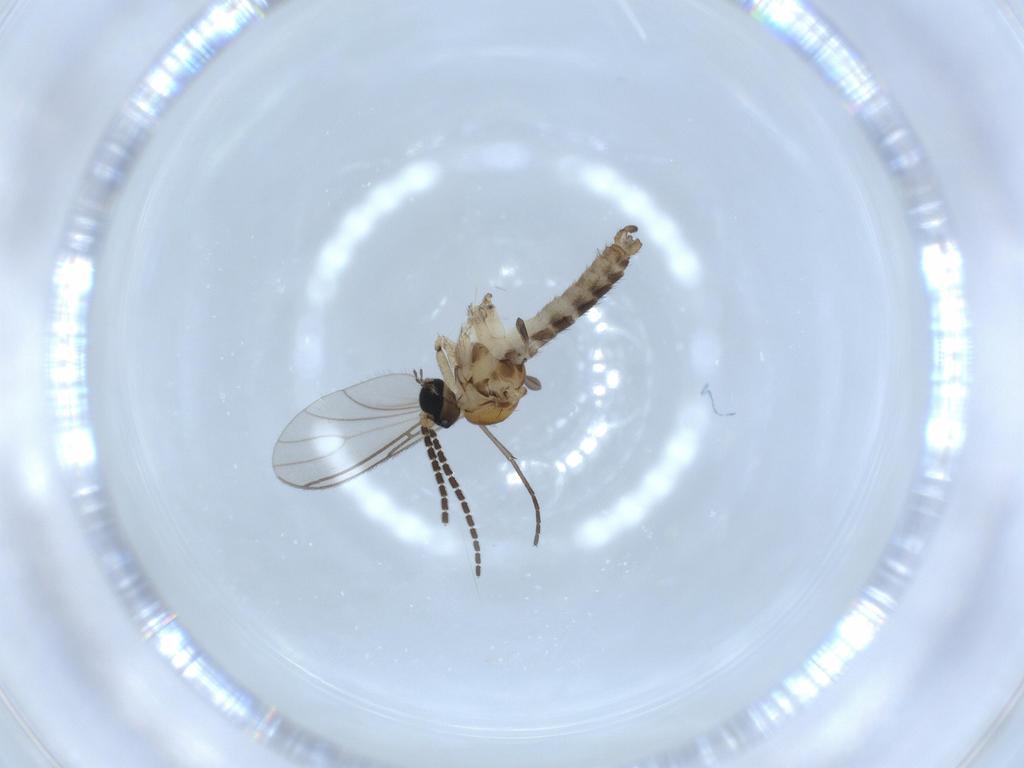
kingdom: Animalia
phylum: Arthropoda
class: Insecta
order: Diptera
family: Sciaridae
